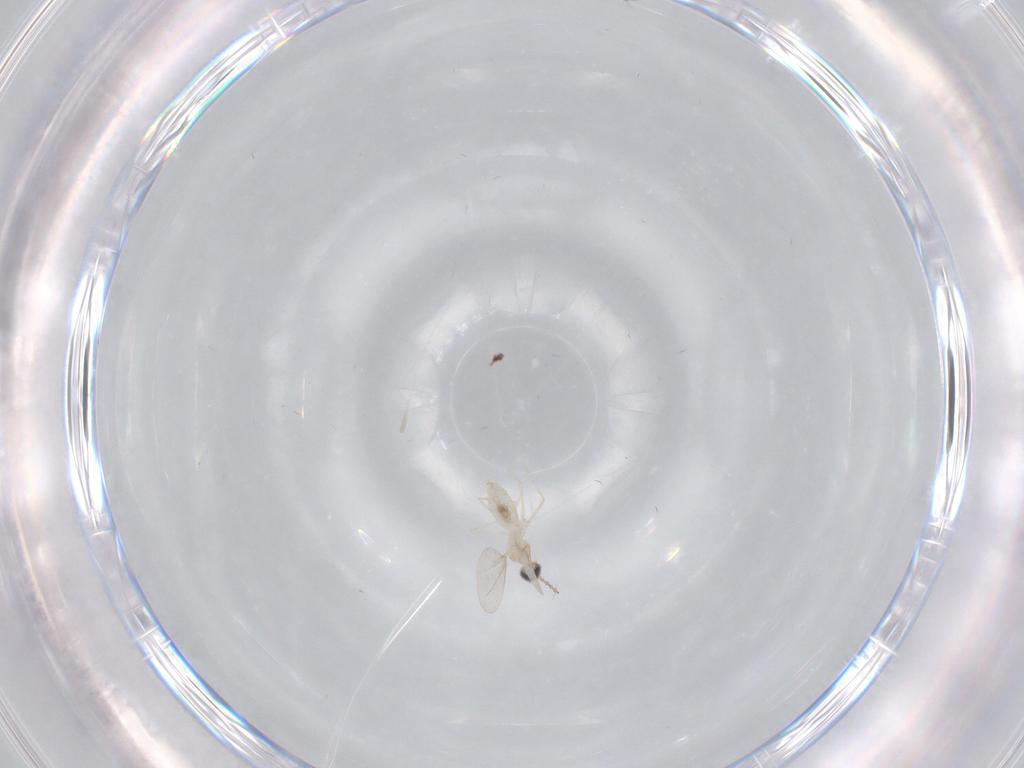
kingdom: Animalia
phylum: Arthropoda
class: Insecta
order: Diptera
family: Cecidomyiidae
